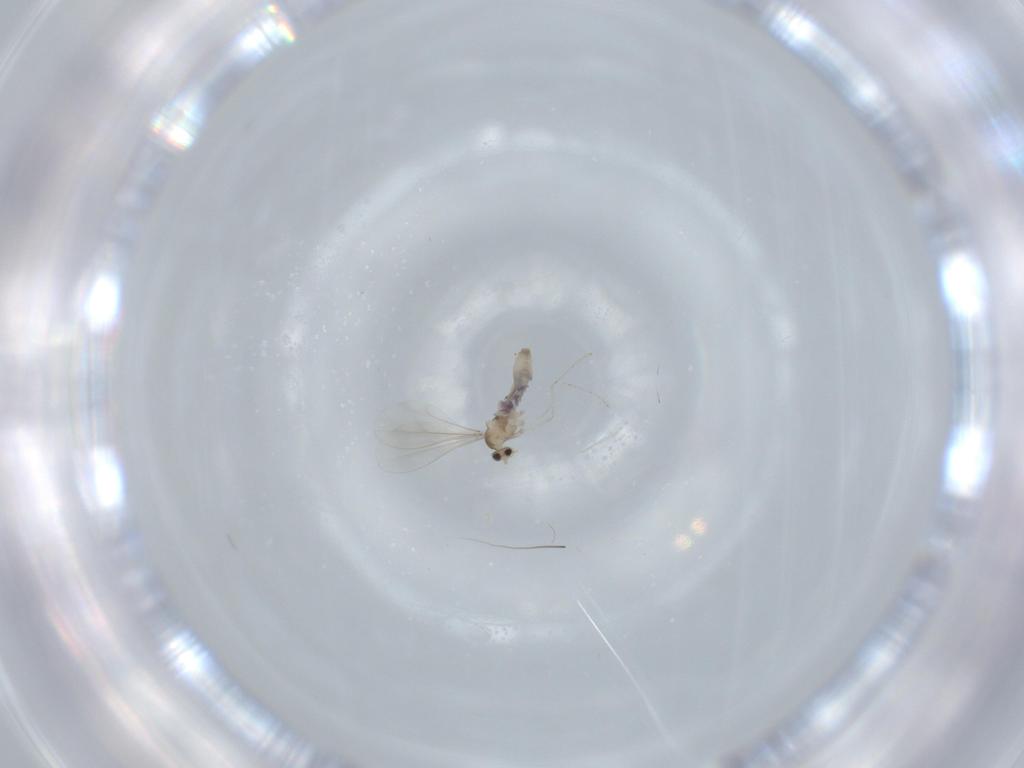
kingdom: Animalia
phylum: Arthropoda
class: Insecta
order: Diptera
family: Cecidomyiidae
